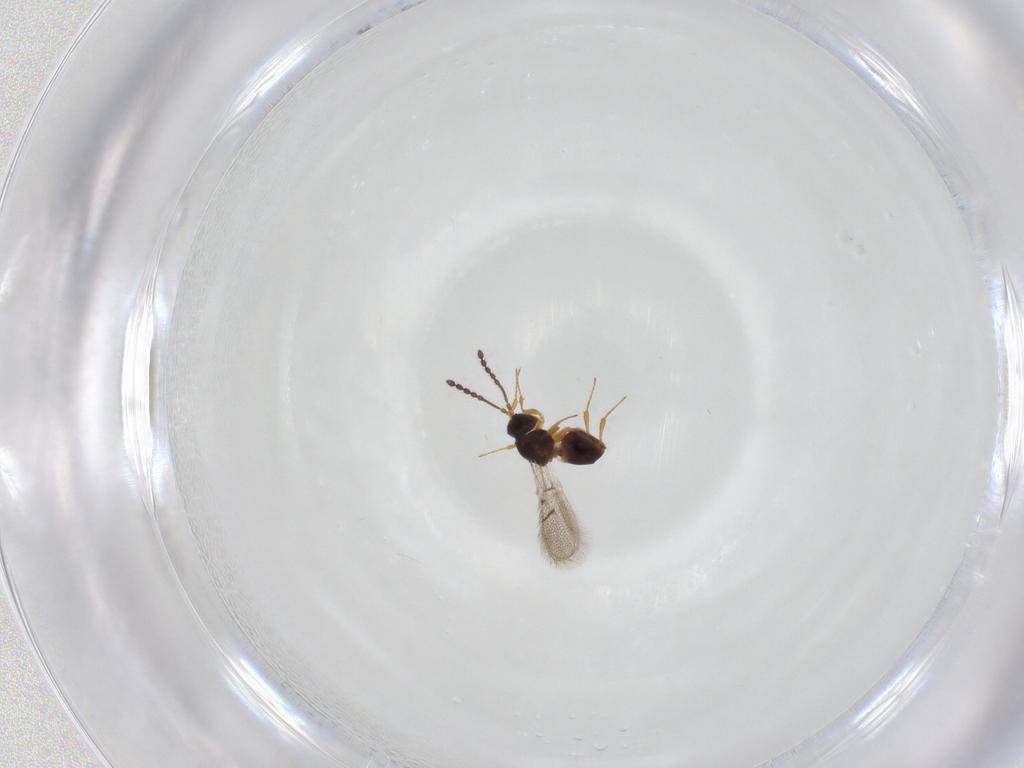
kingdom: Animalia
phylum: Arthropoda
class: Insecta
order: Hymenoptera
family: Figitidae
